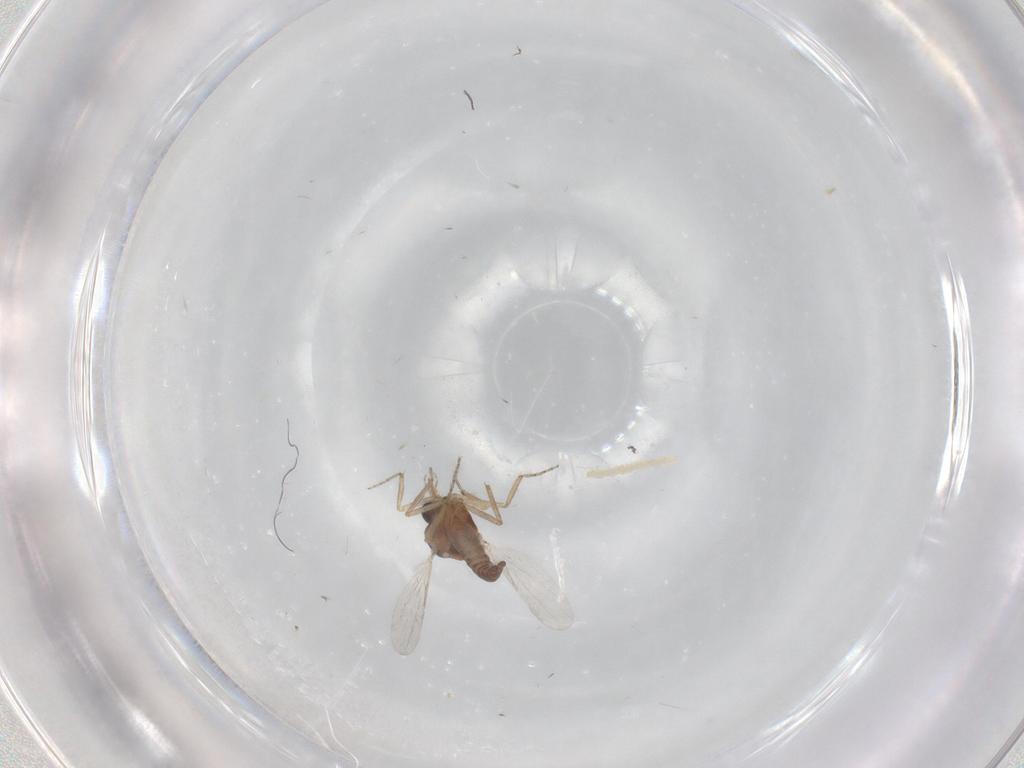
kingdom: Animalia
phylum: Arthropoda
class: Insecta
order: Diptera
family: Ceratopogonidae
